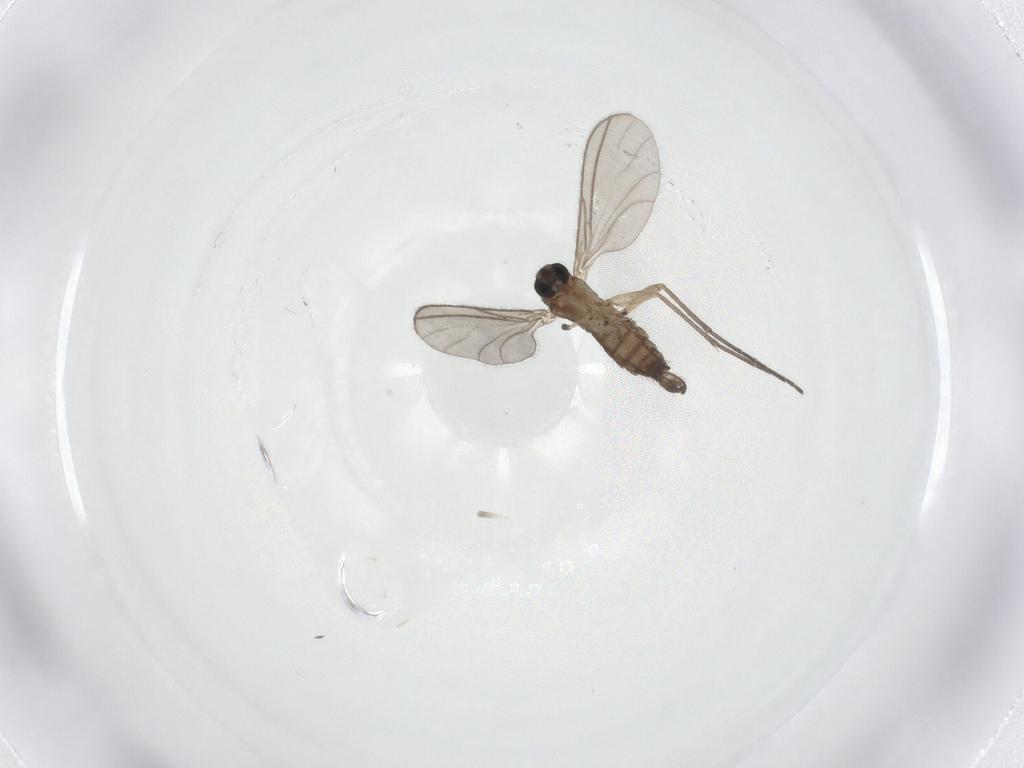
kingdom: Animalia
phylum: Arthropoda
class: Insecta
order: Diptera
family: Sciaridae
